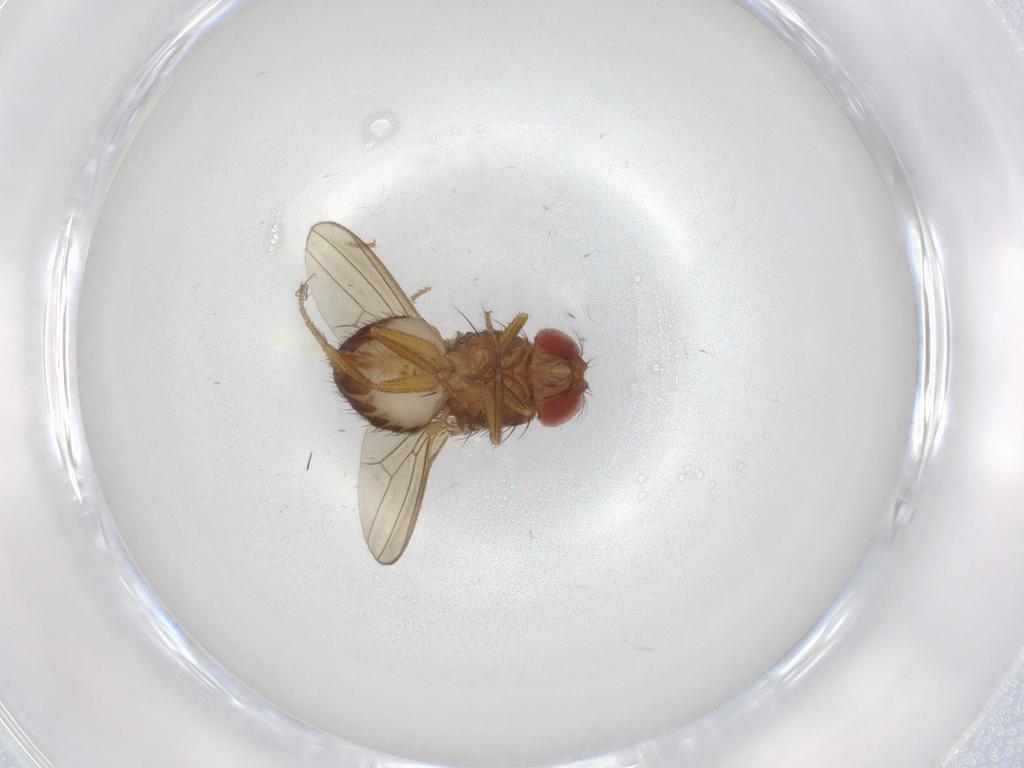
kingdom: Animalia
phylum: Arthropoda
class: Insecta
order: Diptera
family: Drosophilidae
